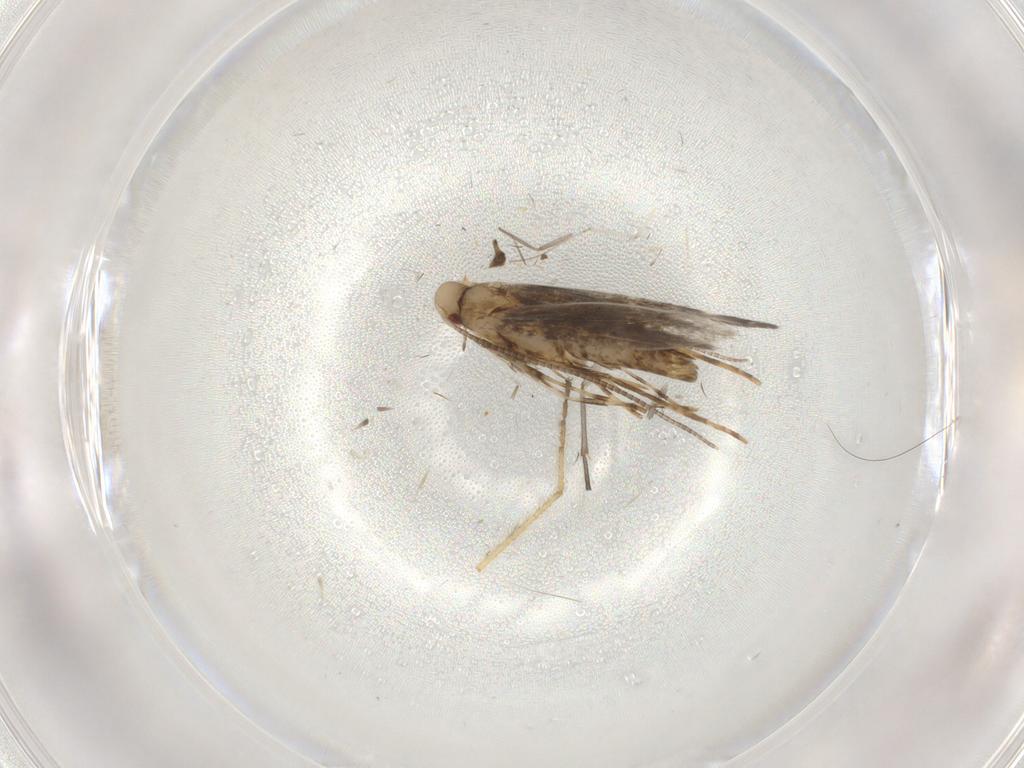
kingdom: Animalia
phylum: Arthropoda
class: Insecta
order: Lepidoptera
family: Gracillariidae
